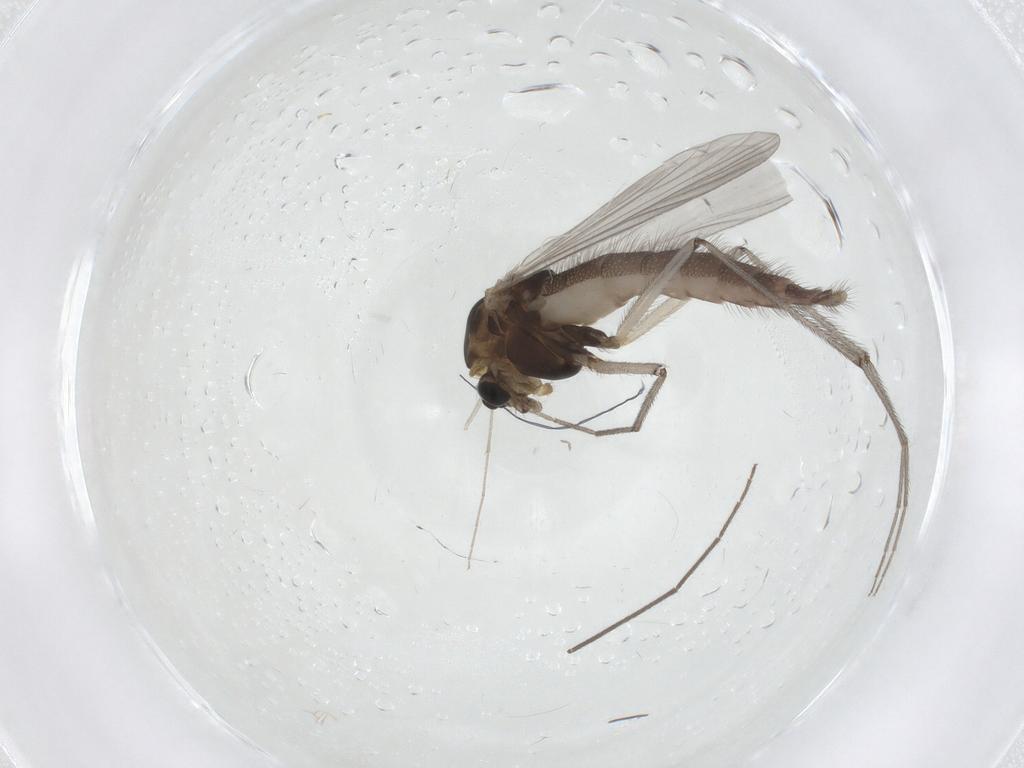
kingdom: Animalia
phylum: Arthropoda
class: Insecta
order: Diptera
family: Chironomidae
